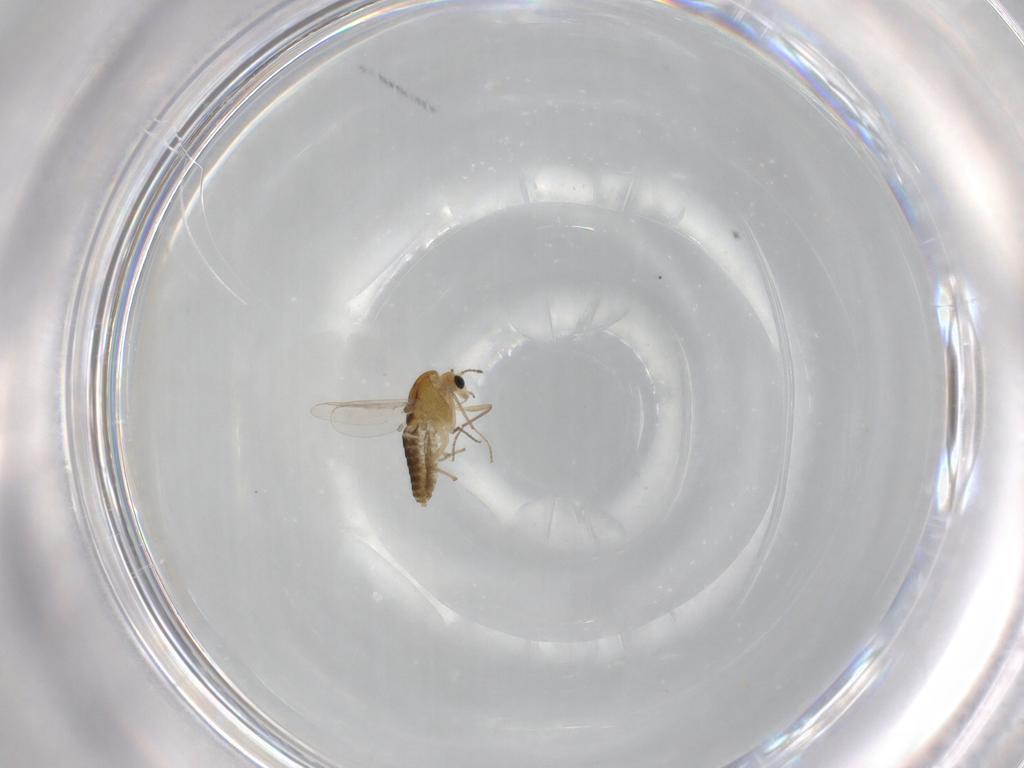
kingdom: Animalia
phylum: Arthropoda
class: Insecta
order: Diptera
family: Chironomidae
